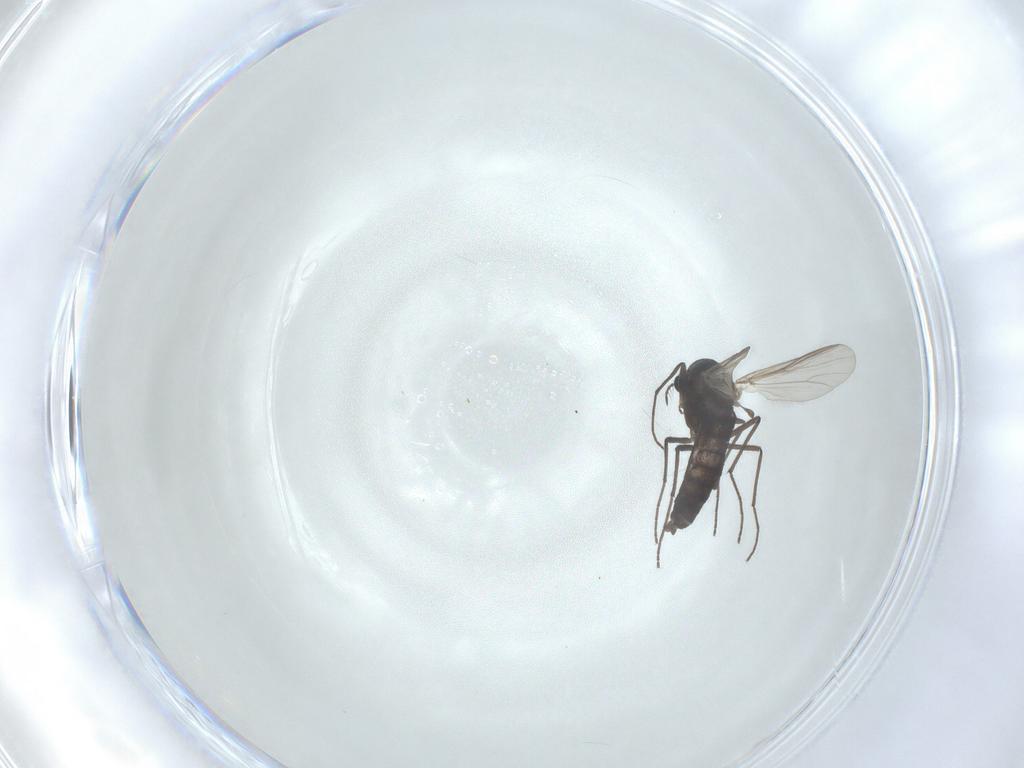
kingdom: Animalia
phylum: Arthropoda
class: Insecta
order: Diptera
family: Chironomidae
